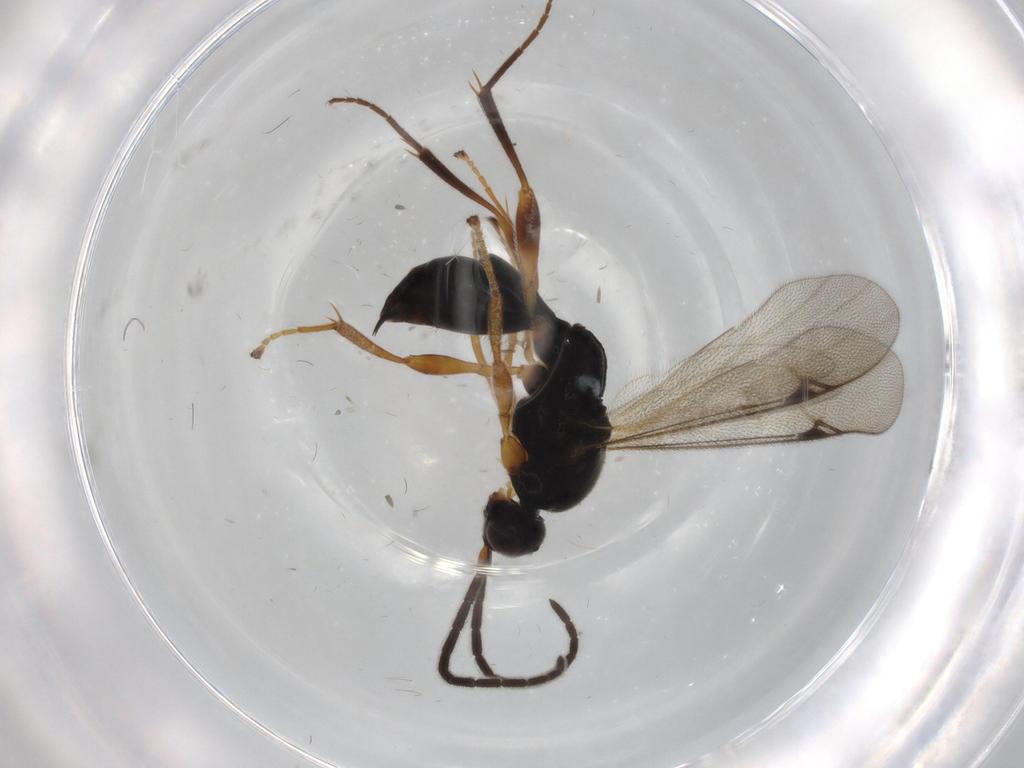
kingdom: Animalia
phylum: Arthropoda
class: Insecta
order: Hymenoptera
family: Proctotrupidae
